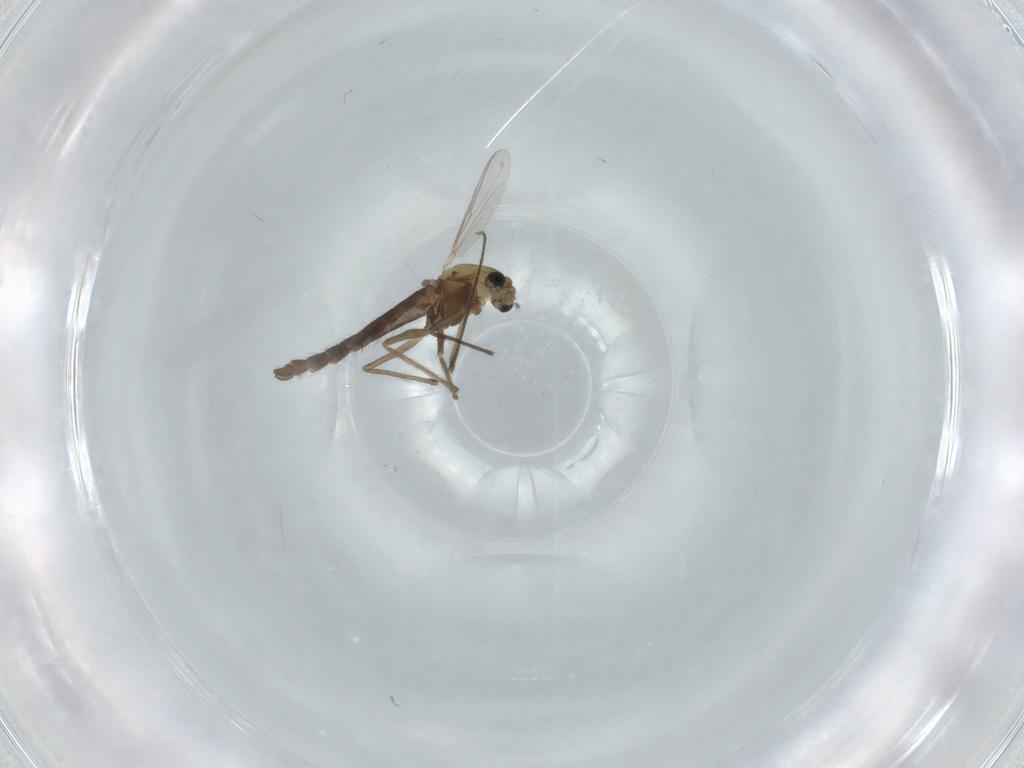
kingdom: Animalia
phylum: Arthropoda
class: Insecta
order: Diptera
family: Chironomidae
